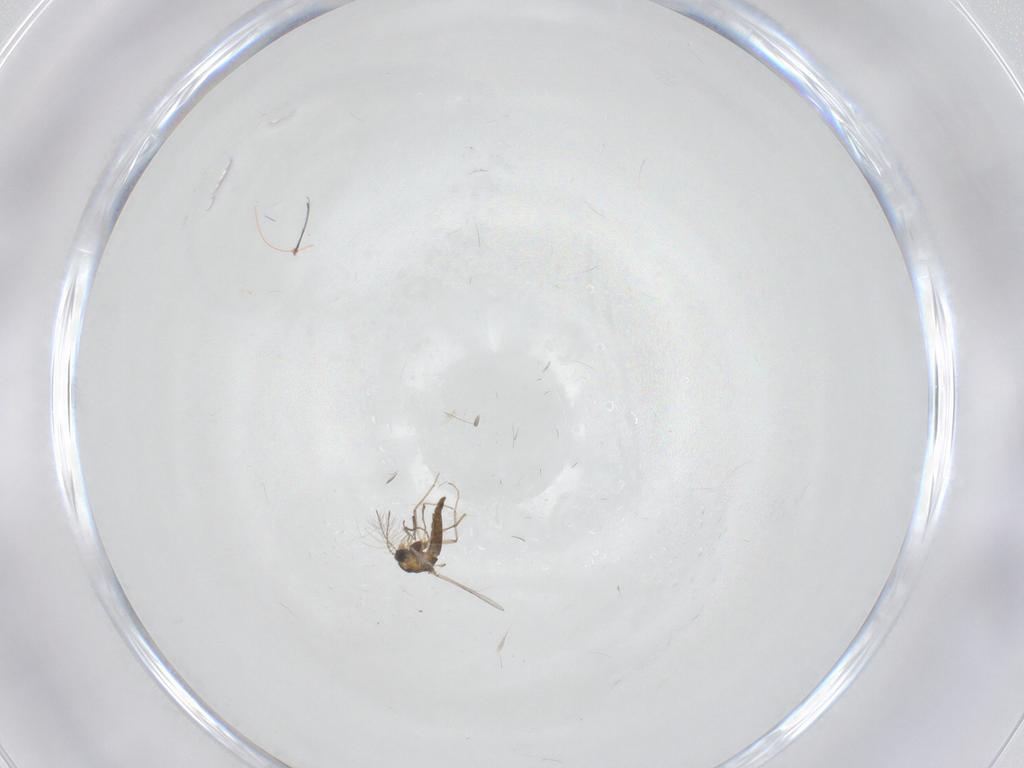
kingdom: Animalia
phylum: Arthropoda
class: Insecta
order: Diptera
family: Chironomidae
